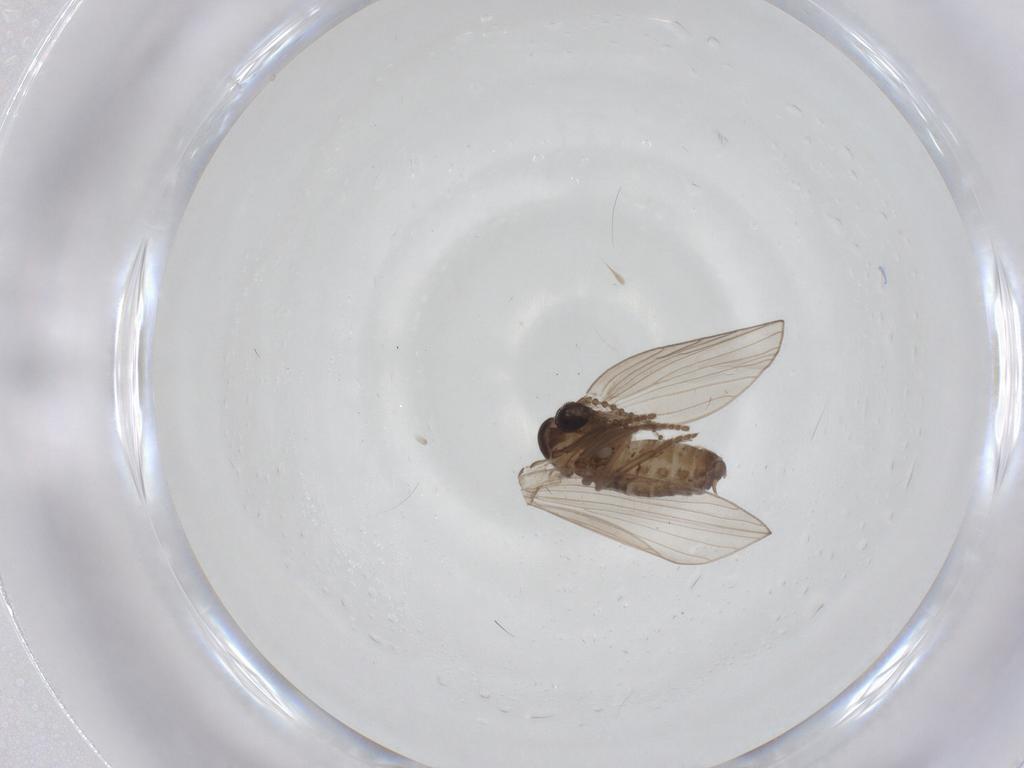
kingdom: Animalia
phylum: Arthropoda
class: Insecta
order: Diptera
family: Psychodidae
